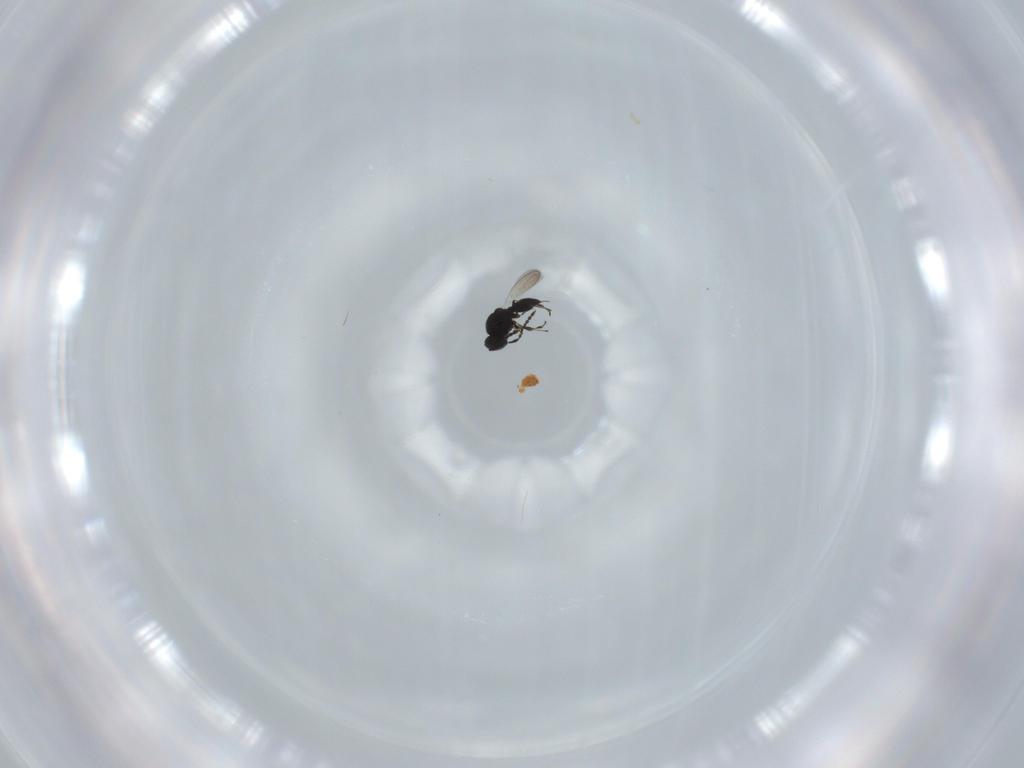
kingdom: Animalia
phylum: Arthropoda
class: Insecta
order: Hymenoptera
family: Platygastridae
